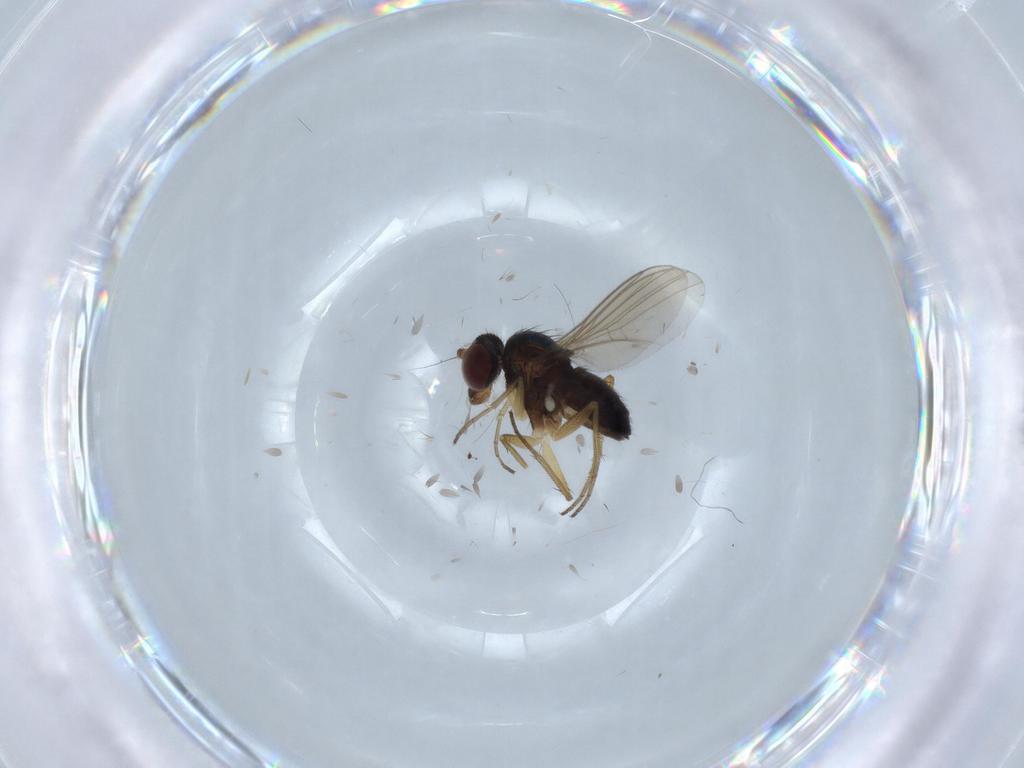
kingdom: Animalia
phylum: Arthropoda
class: Insecta
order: Diptera
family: Dolichopodidae
